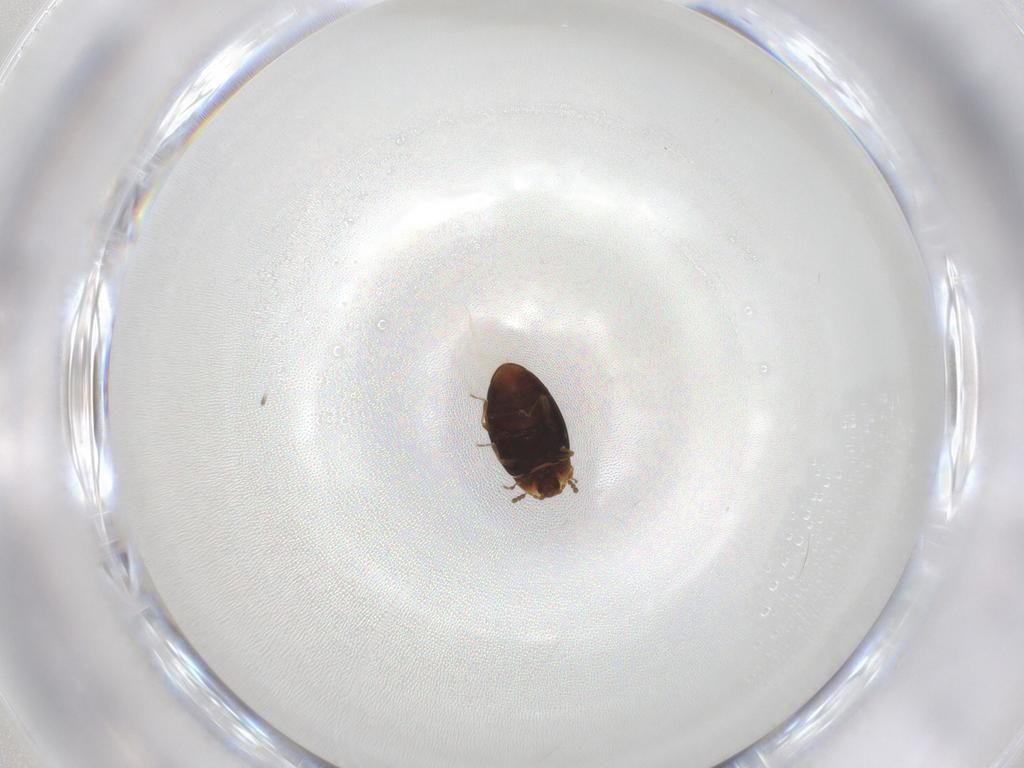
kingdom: Animalia
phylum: Arthropoda
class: Insecta
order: Coleoptera
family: Corylophidae
